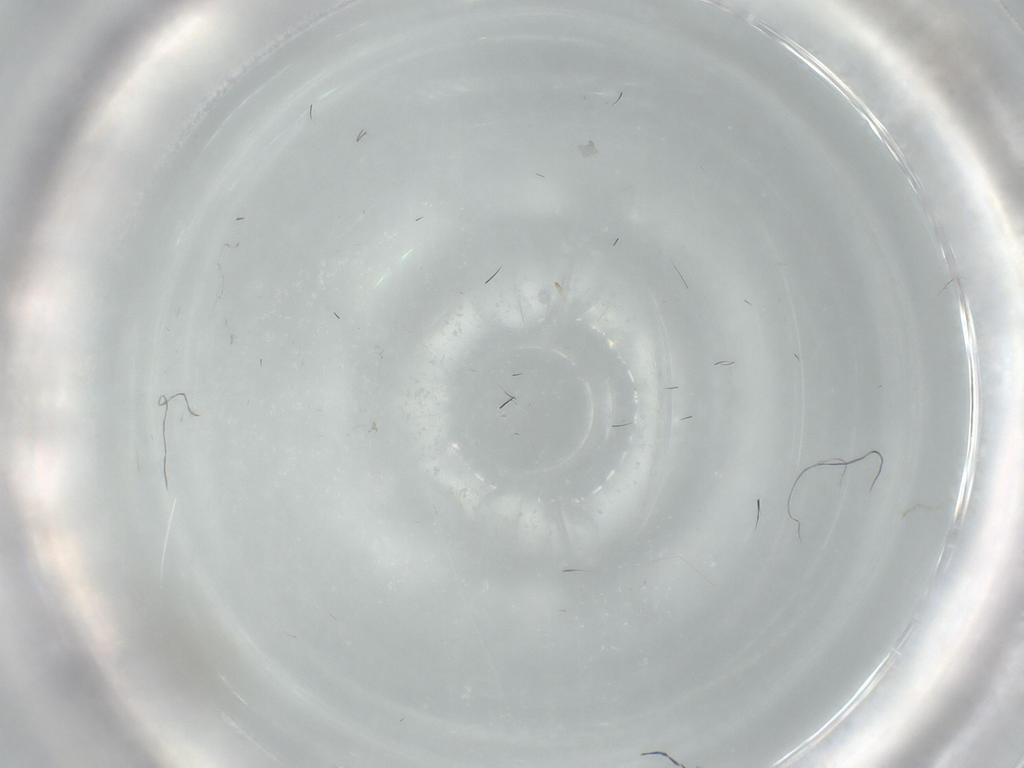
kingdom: Animalia
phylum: Arthropoda
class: Insecta
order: Thysanoptera
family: Thripidae
